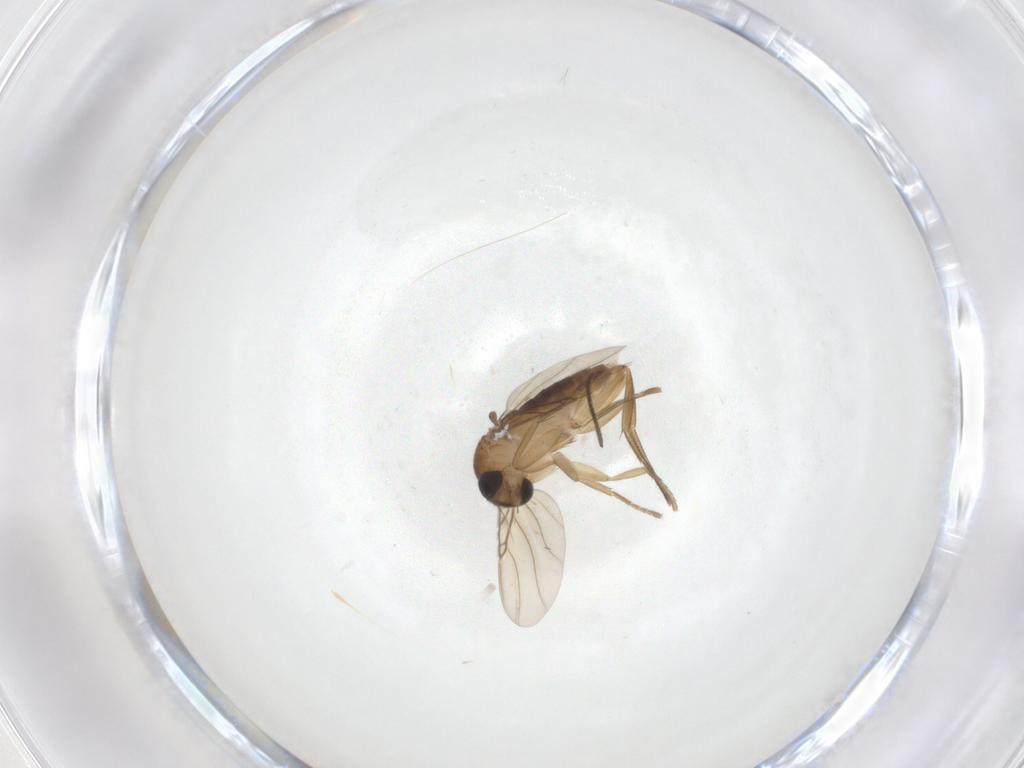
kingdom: Animalia
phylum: Arthropoda
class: Insecta
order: Diptera
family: Sciaridae
